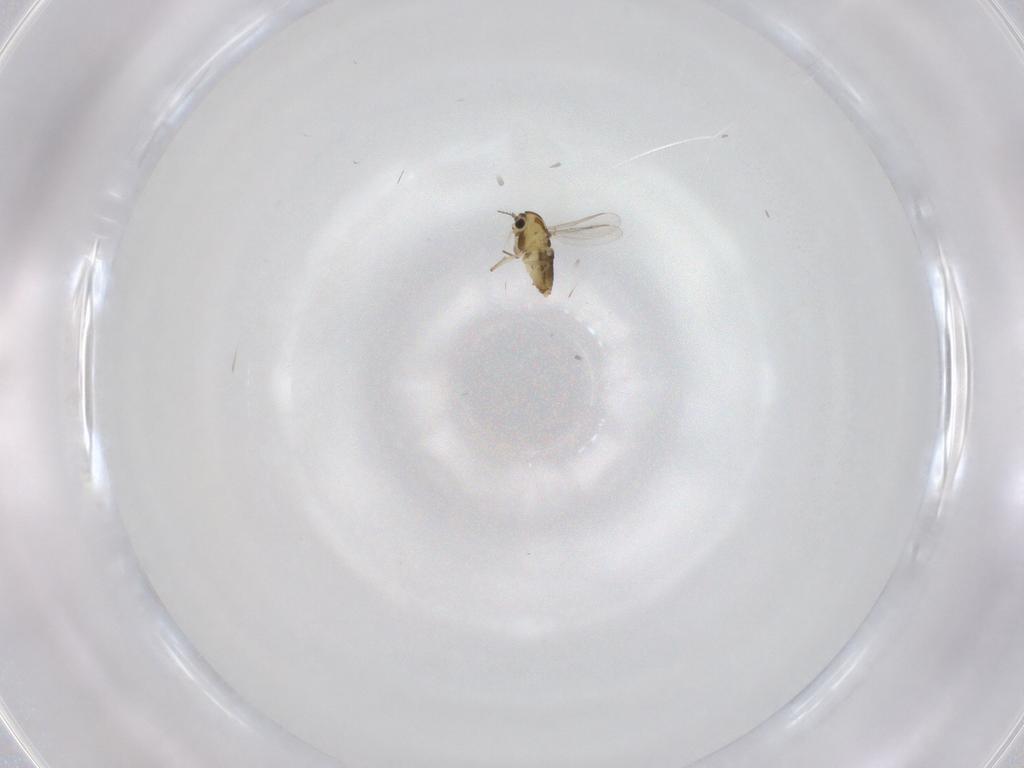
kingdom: Animalia
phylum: Arthropoda
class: Insecta
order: Diptera
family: Chironomidae
